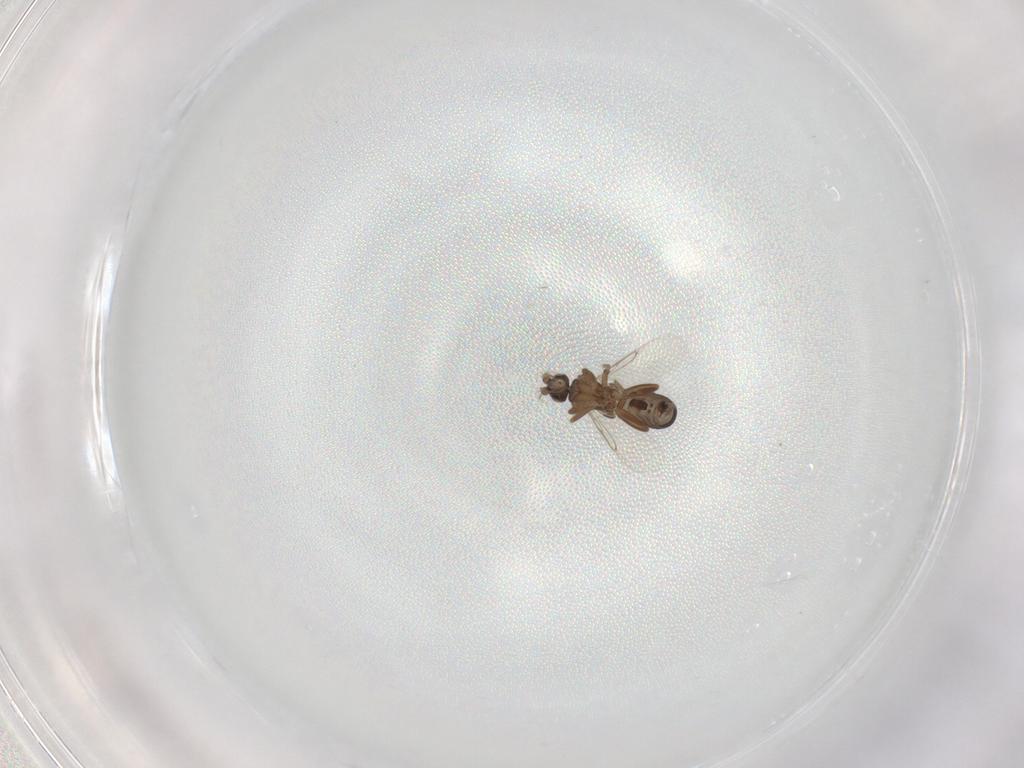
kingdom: Animalia
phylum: Arthropoda
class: Insecta
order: Diptera
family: Phoridae
